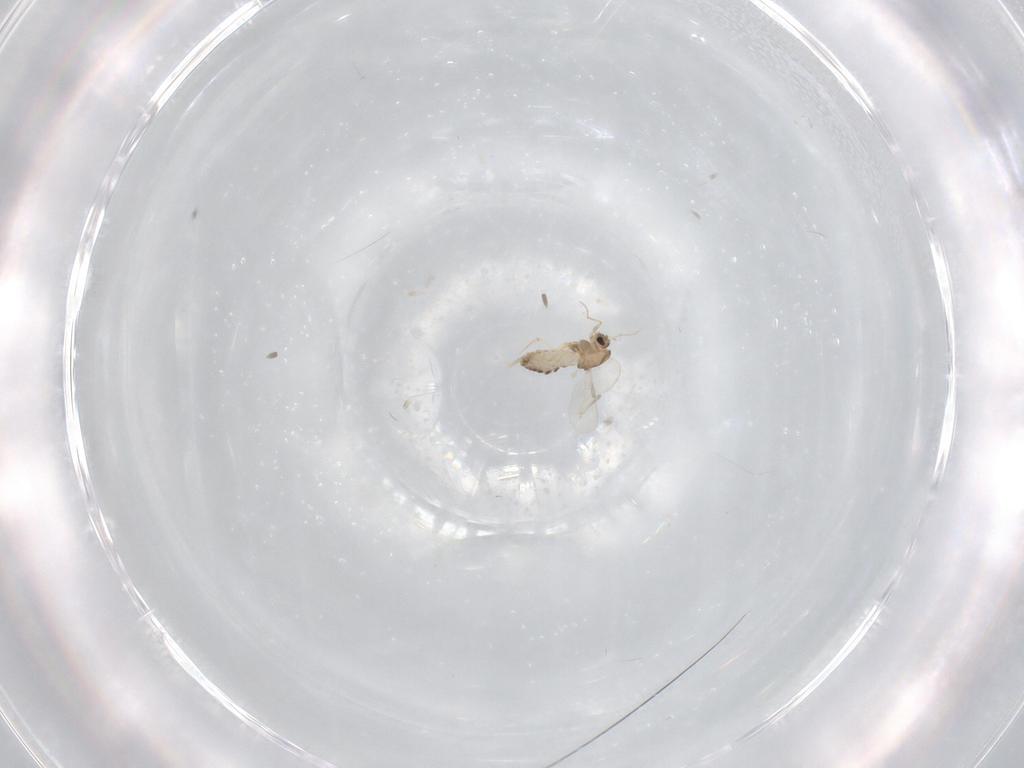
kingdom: Animalia
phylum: Arthropoda
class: Insecta
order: Diptera
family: Chironomidae
